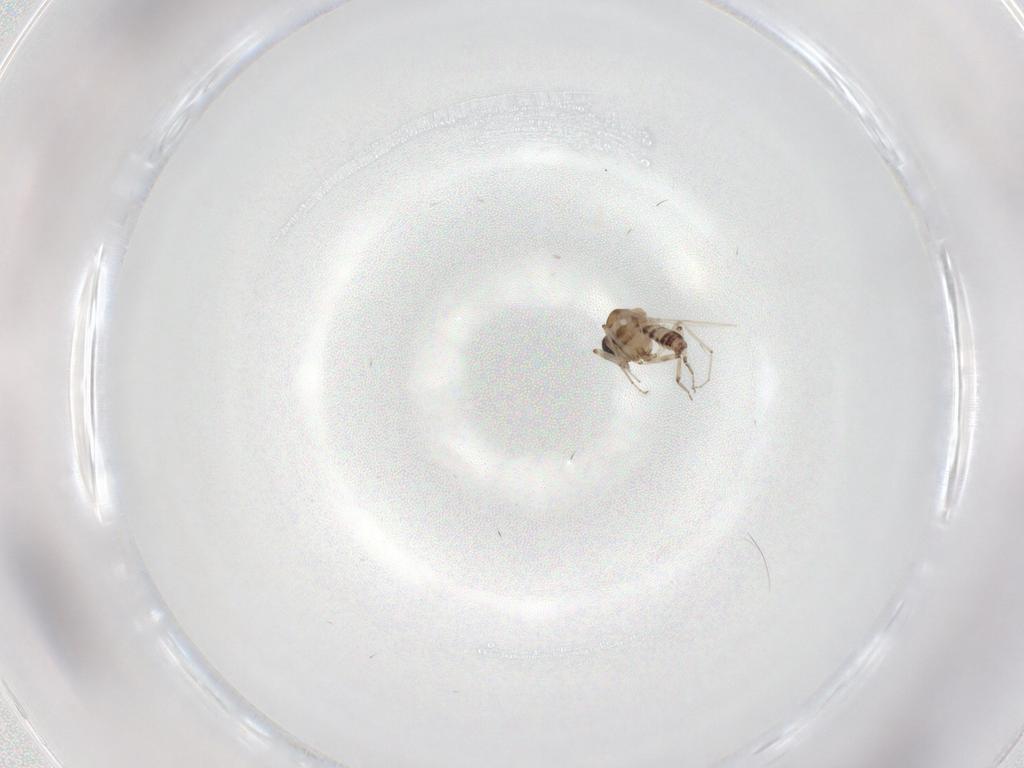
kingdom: Animalia
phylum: Arthropoda
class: Insecta
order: Diptera
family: Ceratopogonidae
